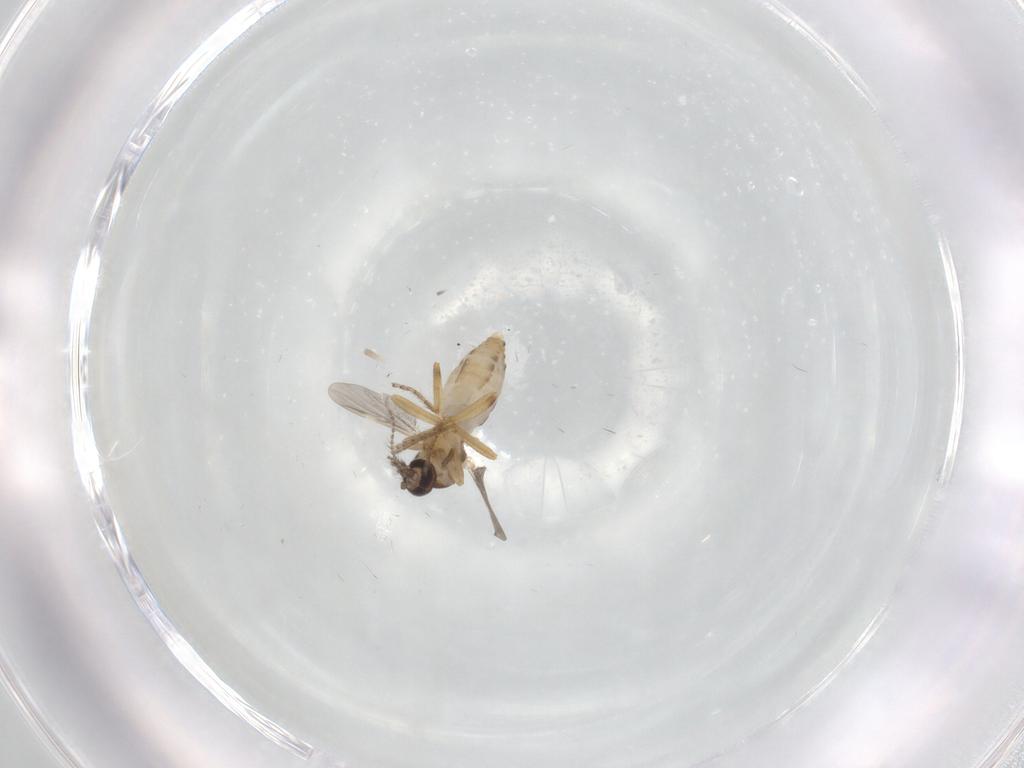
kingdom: Animalia
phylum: Arthropoda
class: Insecta
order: Diptera
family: Ceratopogonidae
